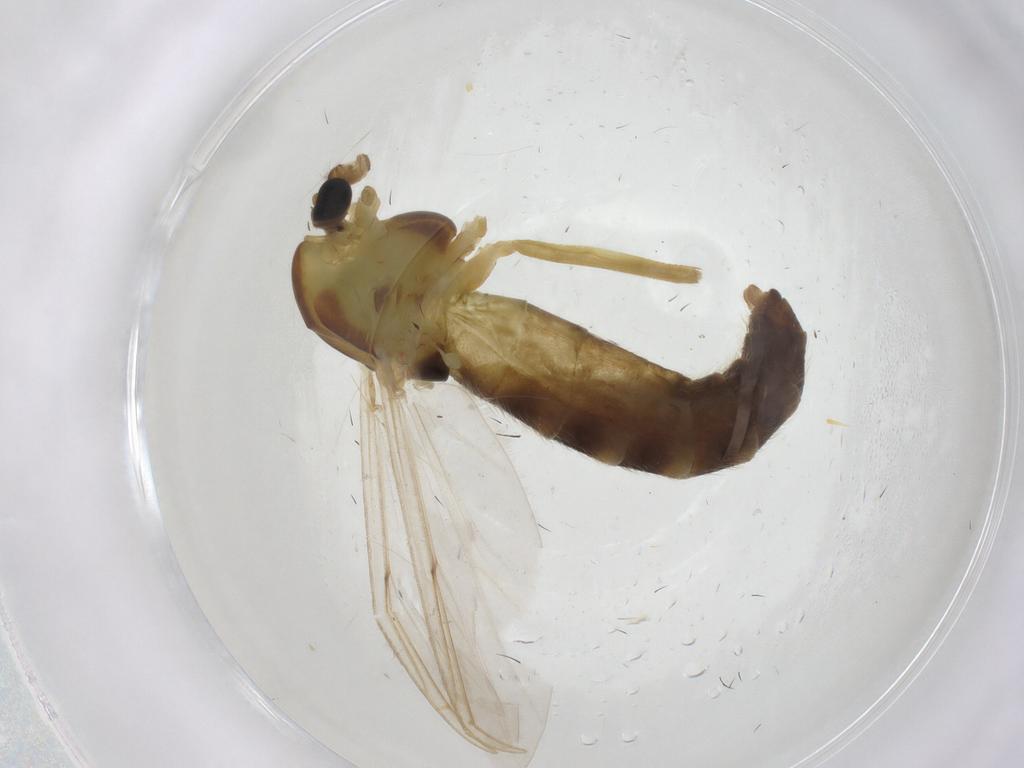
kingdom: Animalia
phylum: Arthropoda
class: Insecta
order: Diptera
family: Chironomidae
